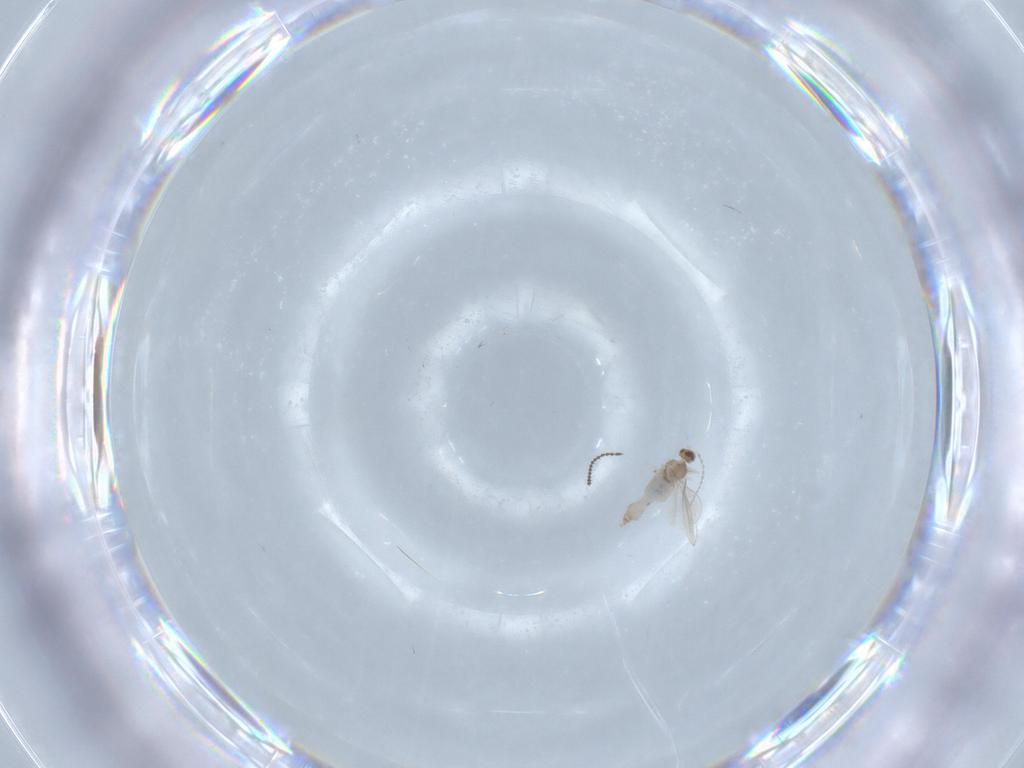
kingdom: Animalia
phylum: Arthropoda
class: Insecta
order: Diptera
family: Cecidomyiidae
